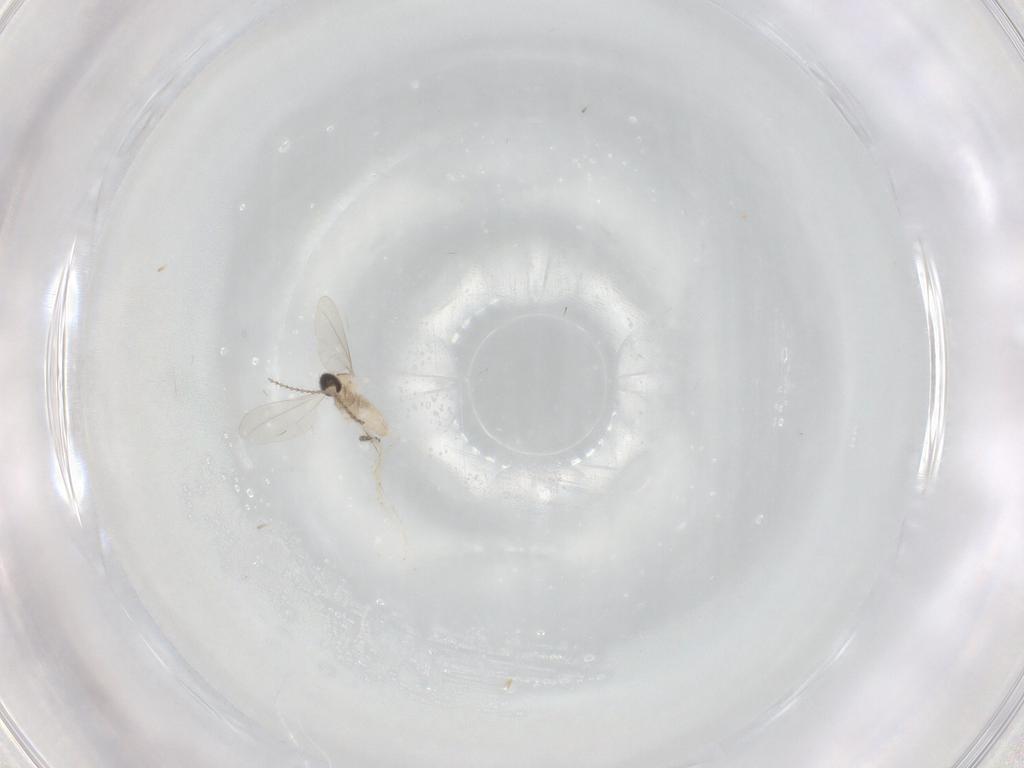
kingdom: Animalia
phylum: Arthropoda
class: Insecta
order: Diptera
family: Cecidomyiidae
